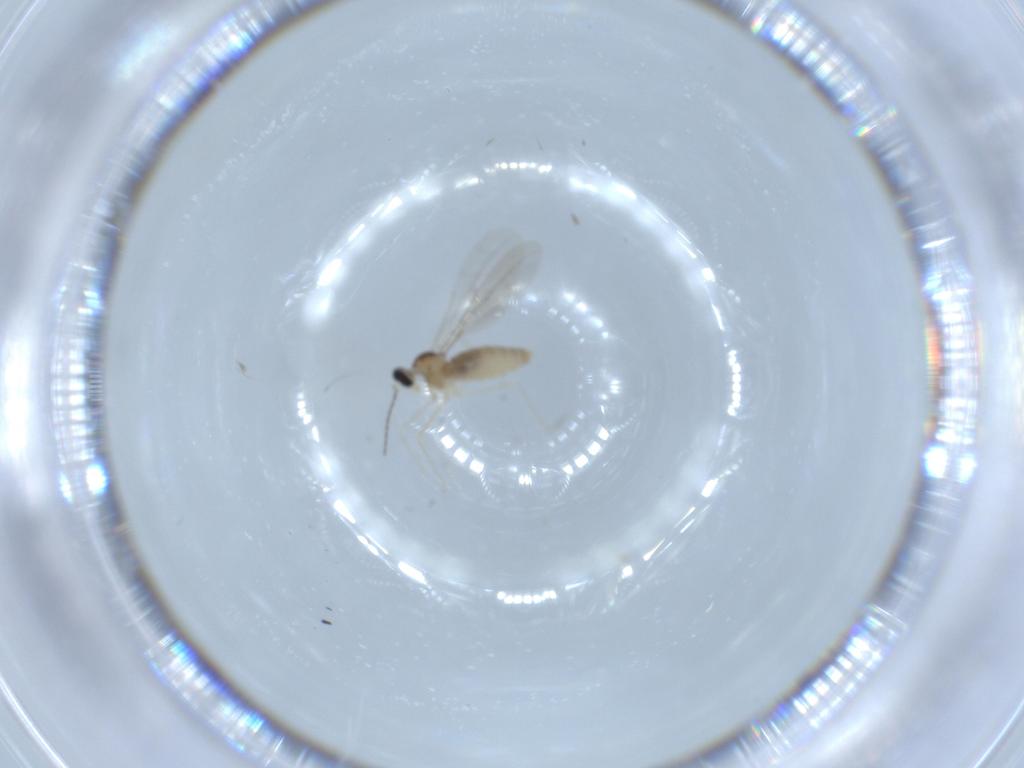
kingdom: Animalia
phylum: Arthropoda
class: Insecta
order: Diptera
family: Cecidomyiidae
